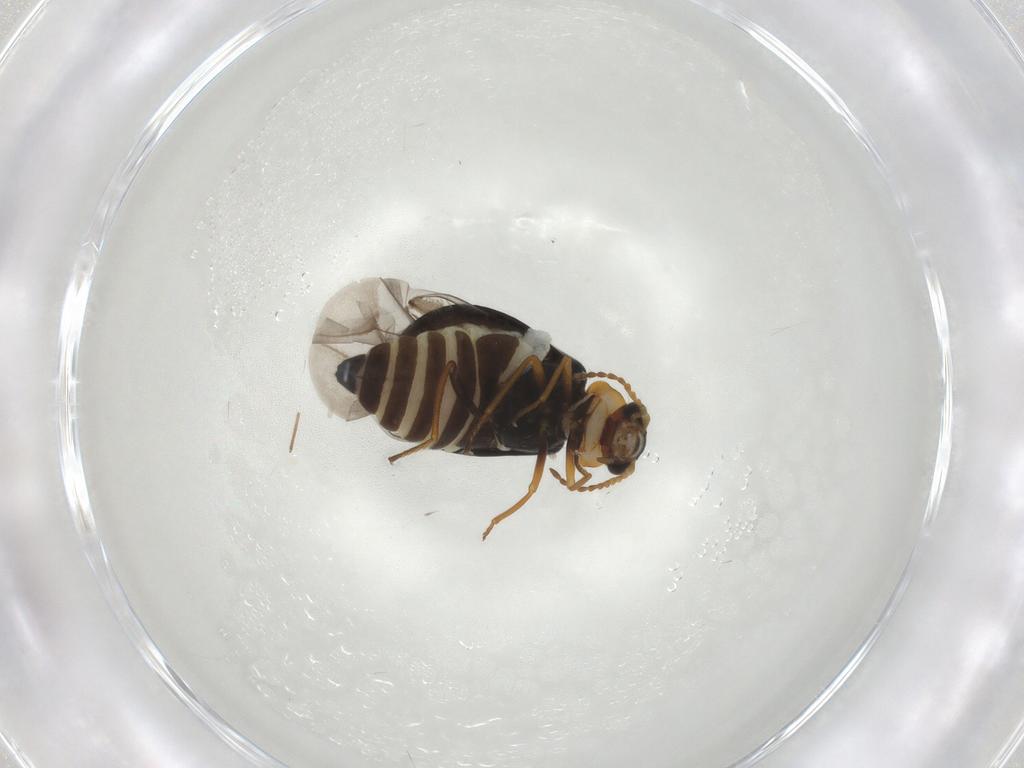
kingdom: Animalia
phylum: Arthropoda
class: Insecta
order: Coleoptera
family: Melyridae
